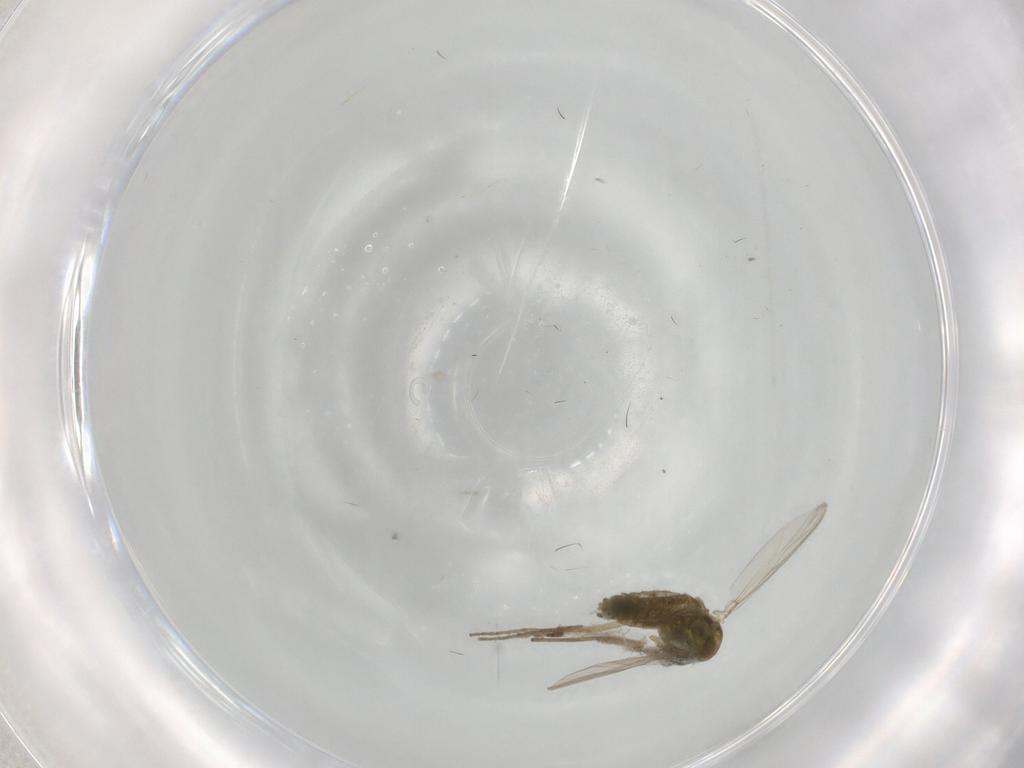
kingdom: Animalia
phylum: Arthropoda
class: Insecta
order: Diptera
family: Chironomidae
